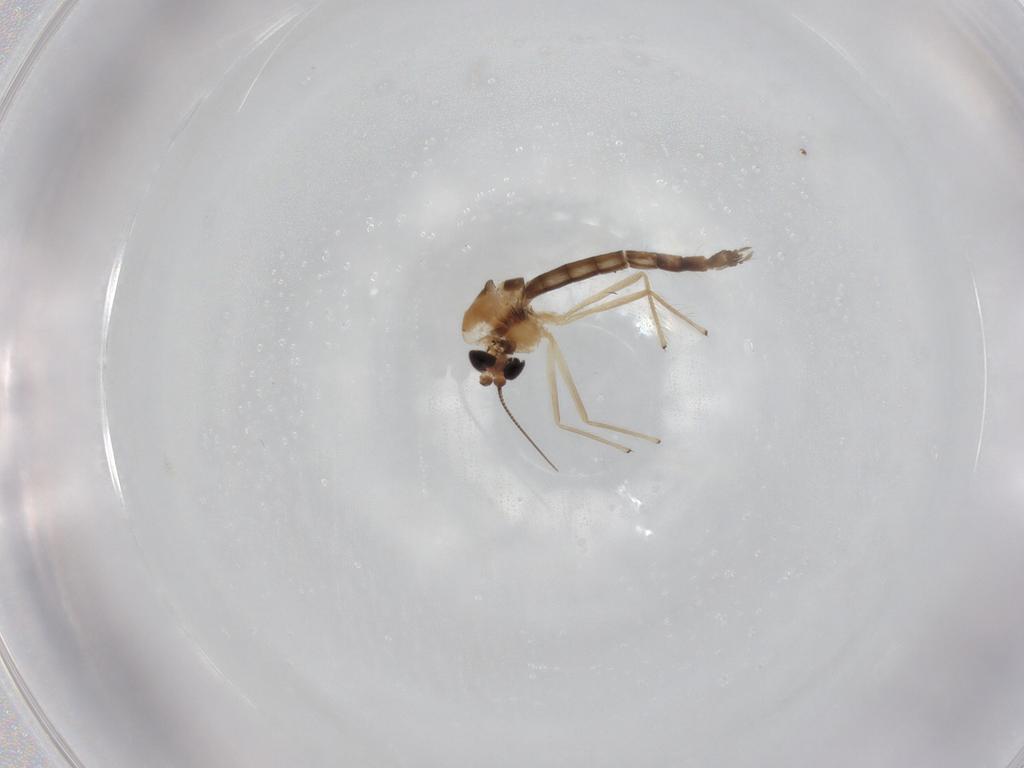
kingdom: Animalia
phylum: Arthropoda
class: Insecta
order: Diptera
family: Chironomidae
